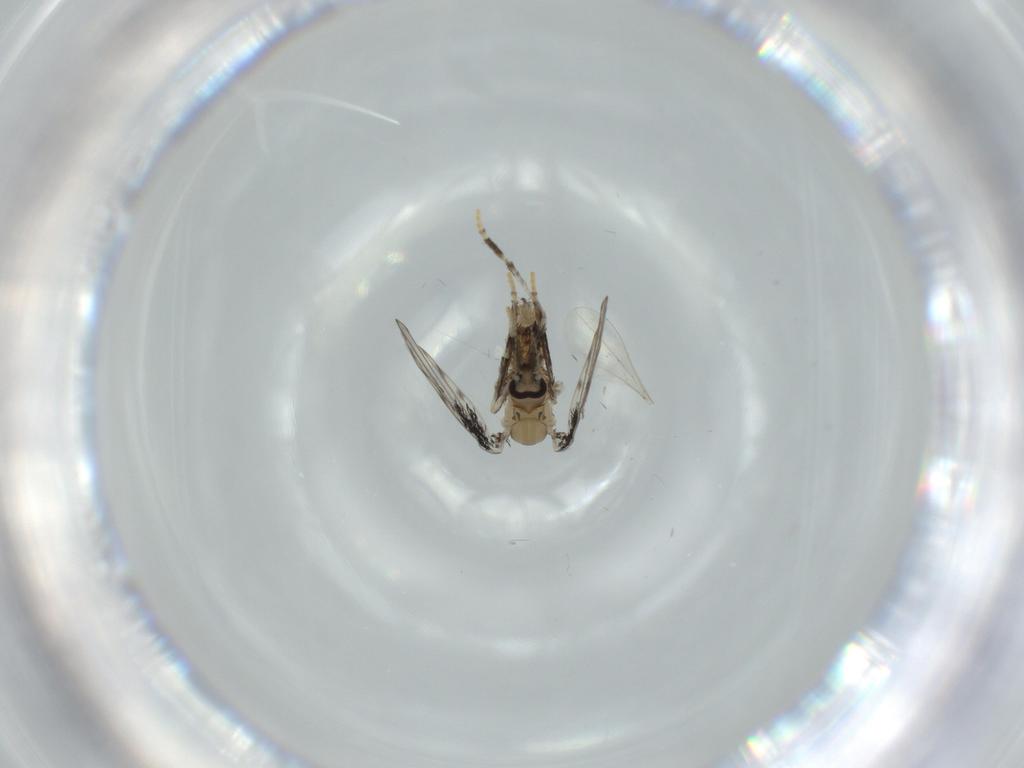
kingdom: Animalia
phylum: Arthropoda
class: Insecta
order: Diptera
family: Psychodidae
